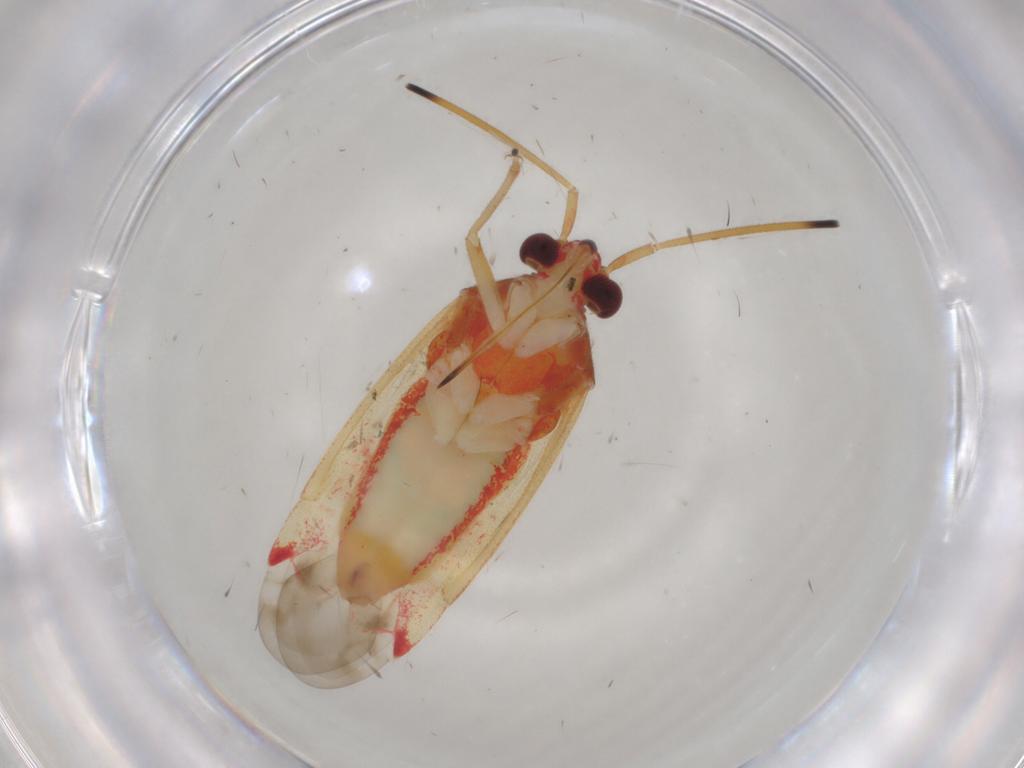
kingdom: Animalia
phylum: Arthropoda
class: Insecta
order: Hemiptera
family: Miridae
